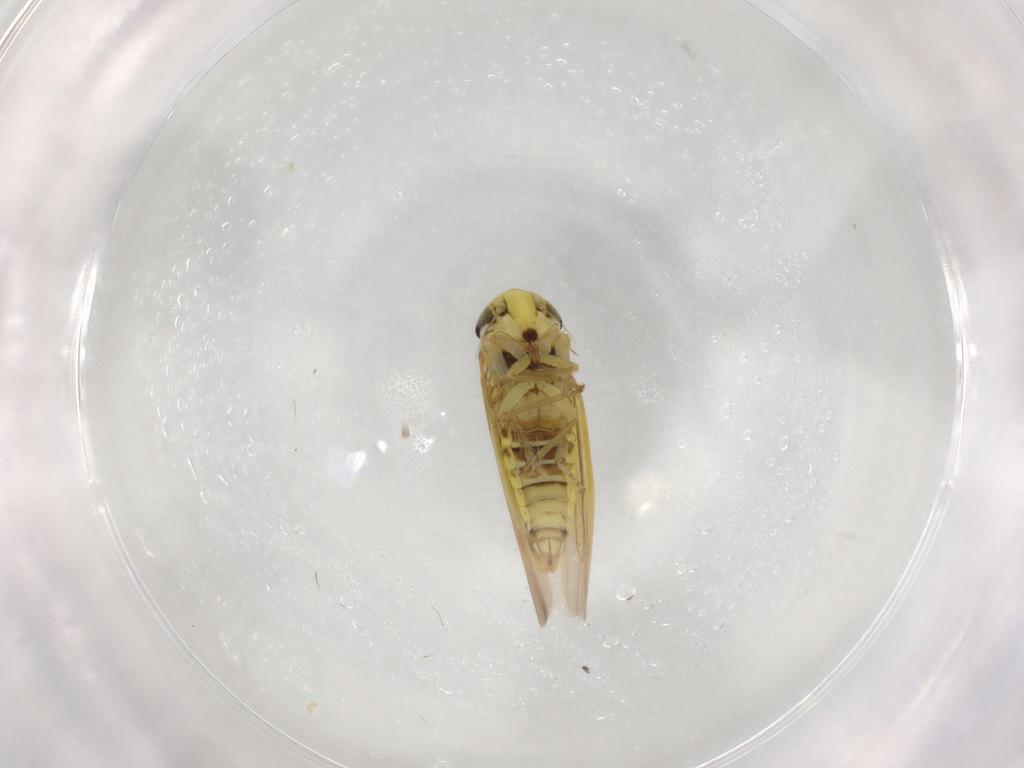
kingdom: Animalia
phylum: Arthropoda
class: Insecta
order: Hemiptera
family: Cicadellidae
